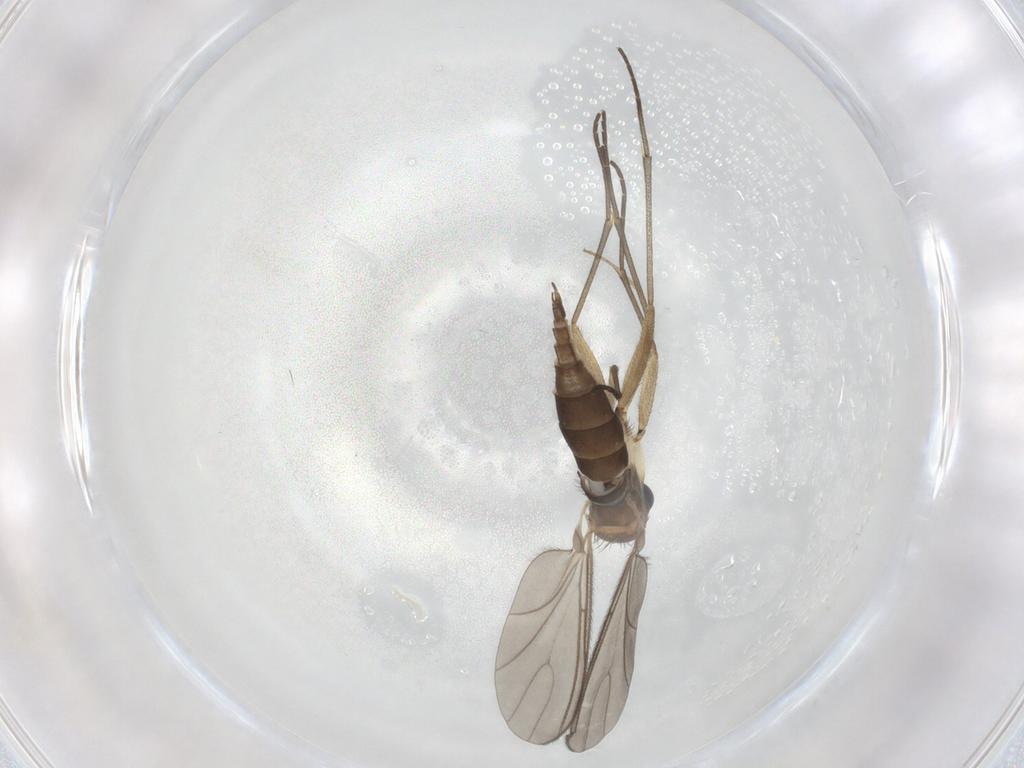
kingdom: Animalia
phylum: Arthropoda
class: Insecta
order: Diptera
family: Sciaridae
